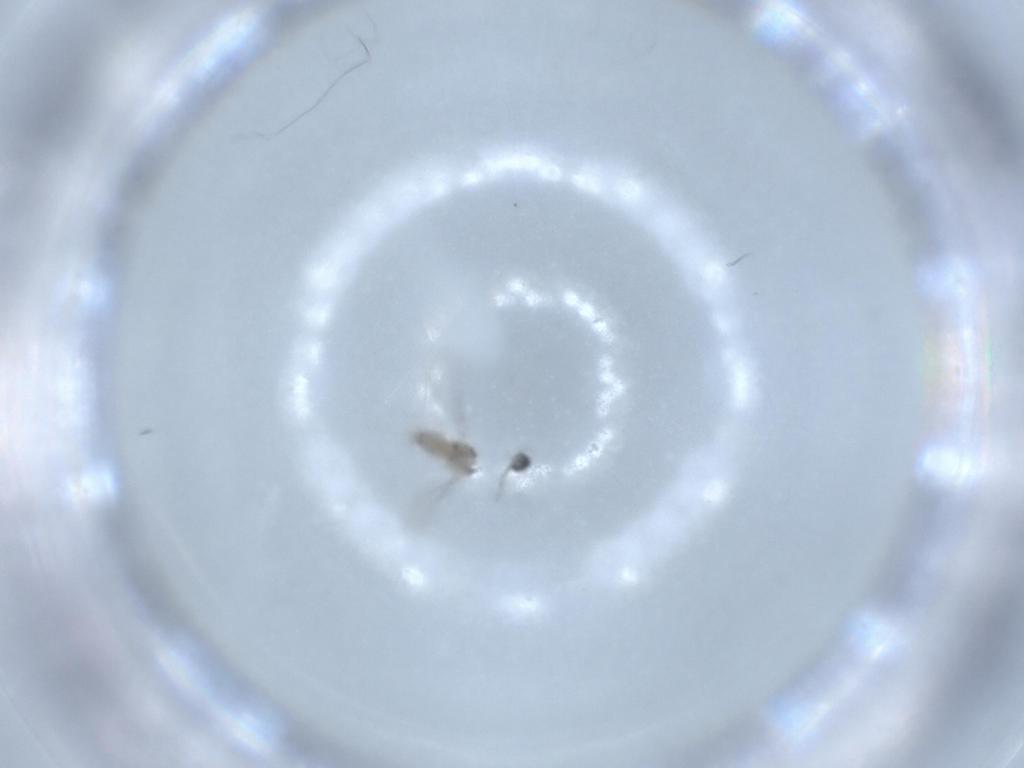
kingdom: Animalia
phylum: Arthropoda
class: Insecta
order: Diptera
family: Cecidomyiidae
